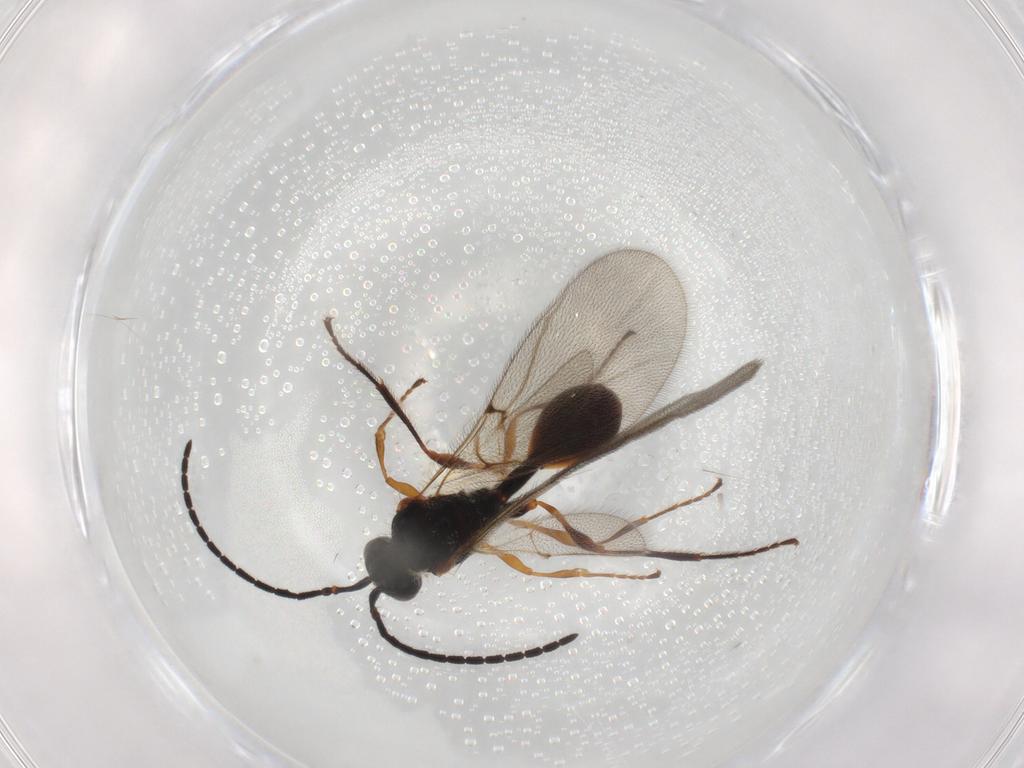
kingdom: Animalia
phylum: Arthropoda
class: Insecta
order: Hymenoptera
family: Diapriidae
